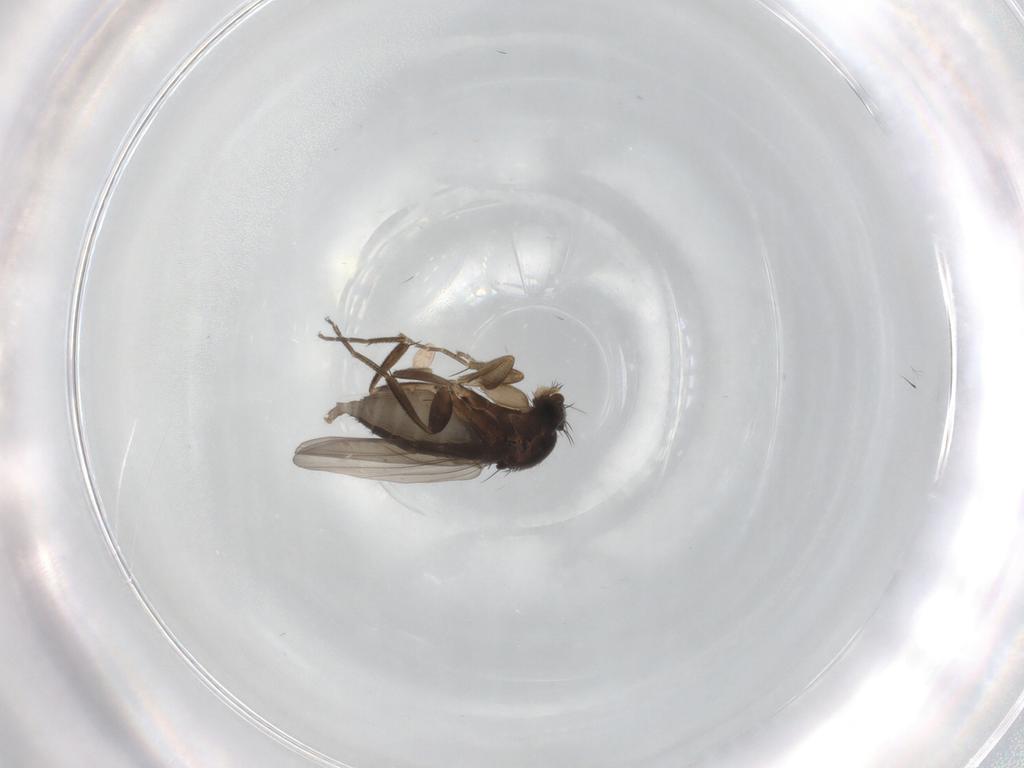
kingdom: Animalia
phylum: Arthropoda
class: Insecta
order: Diptera
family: Phoridae
